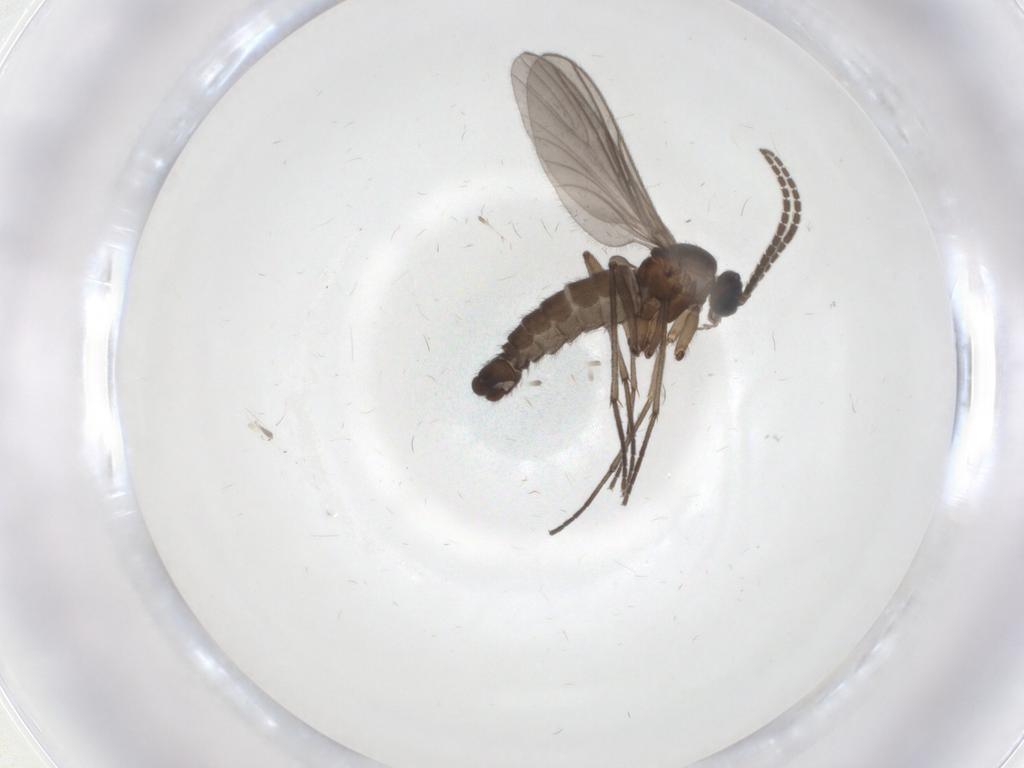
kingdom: Animalia
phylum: Arthropoda
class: Insecta
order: Diptera
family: Sciaridae
